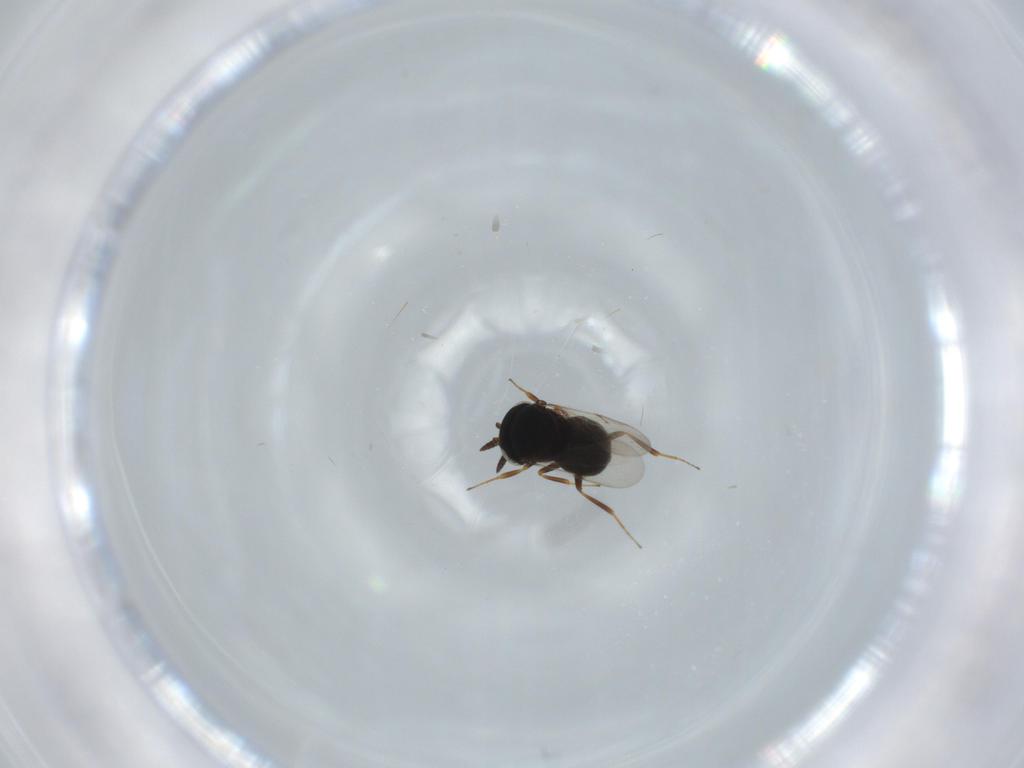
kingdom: Animalia
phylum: Arthropoda
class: Insecta
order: Hymenoptera
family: Scelionidae
